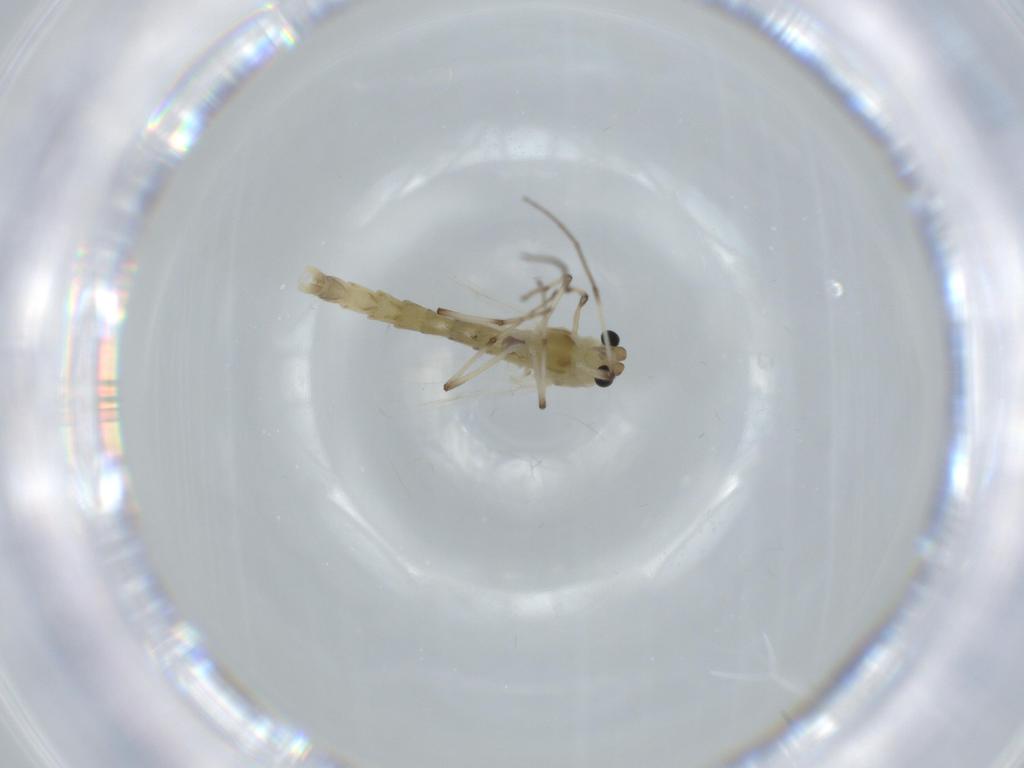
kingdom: Animalia
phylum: Arthropoda
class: Insecta
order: Diptera
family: Chironomidae
